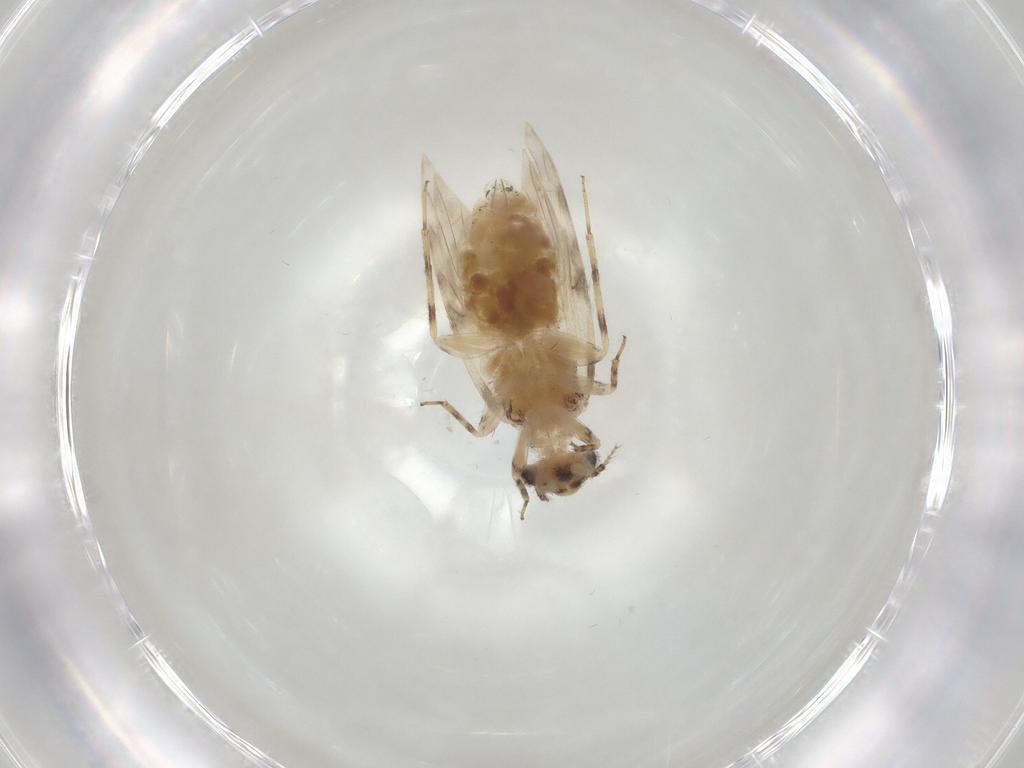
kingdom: Animalia
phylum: Arthropoda
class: Insecta
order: Psocodea
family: Lepidopsocidae
